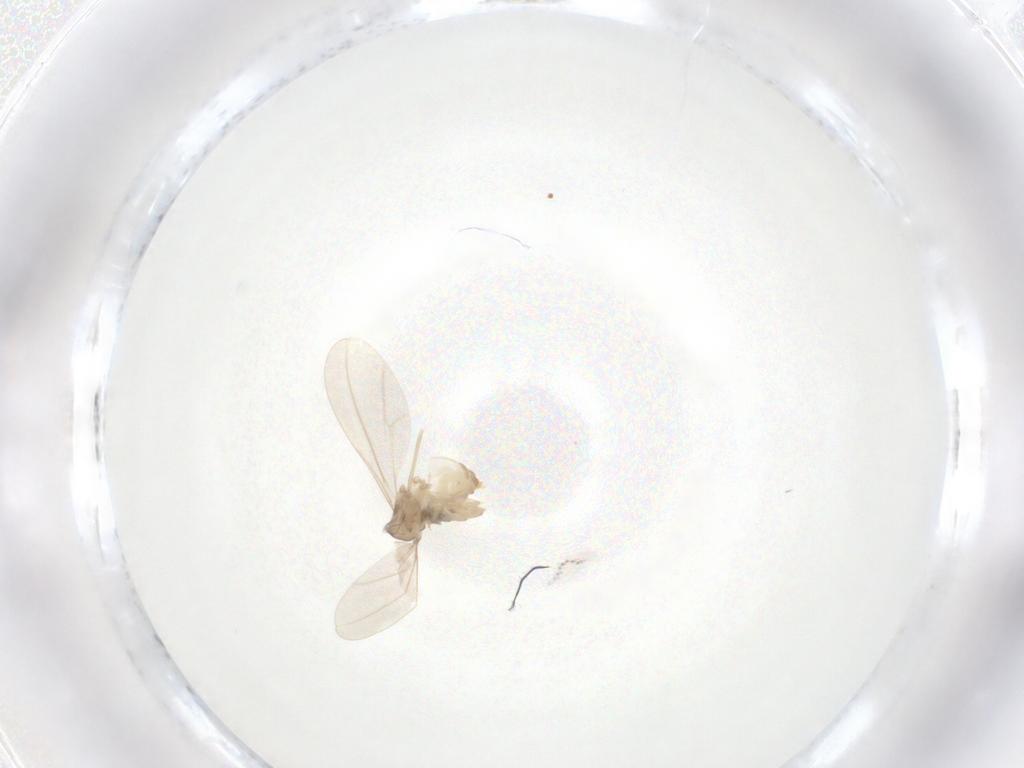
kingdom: Animalia
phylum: Arthropoda
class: Insecta
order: Diptera
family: Cecidomyiidae
